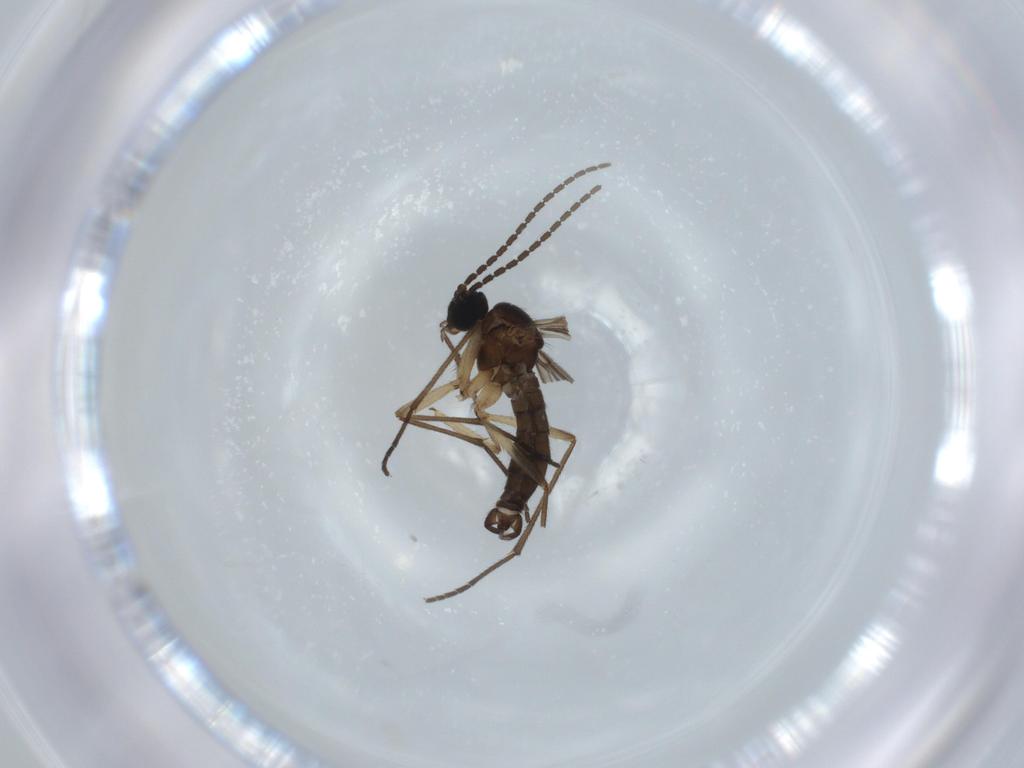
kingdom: Animalia
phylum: Arthropoda
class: Insecta
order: Diptera
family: Sciaridae
